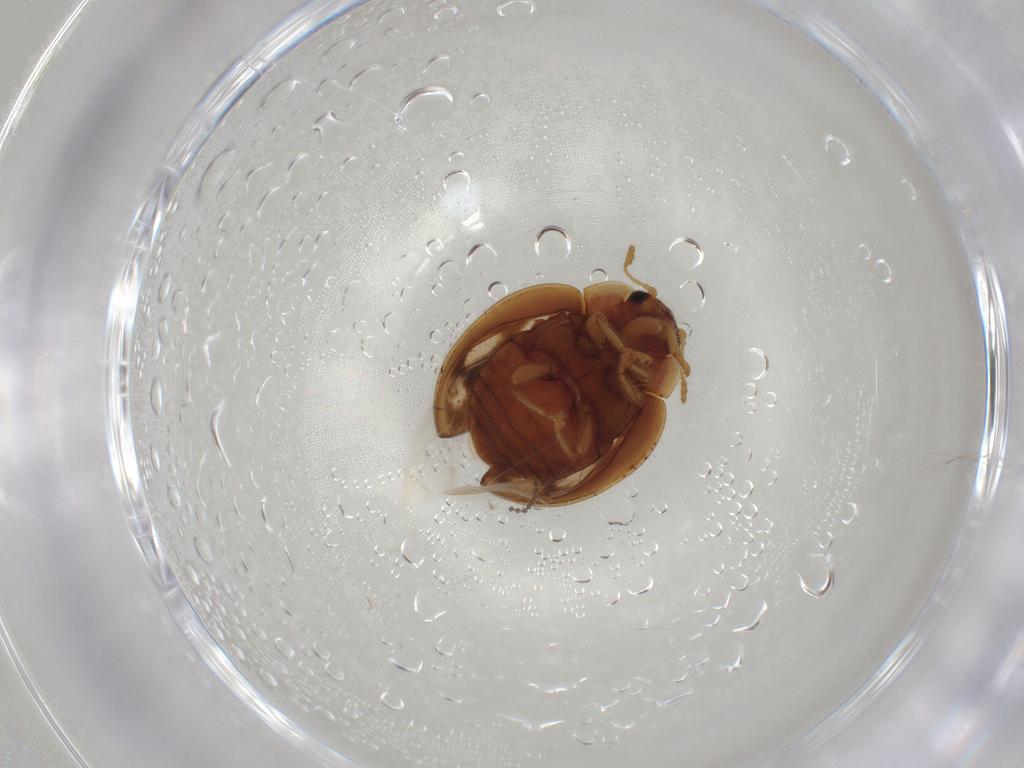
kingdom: Animalia
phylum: Arthropoda
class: Insecta
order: Coleoptera
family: Coccinellidae
